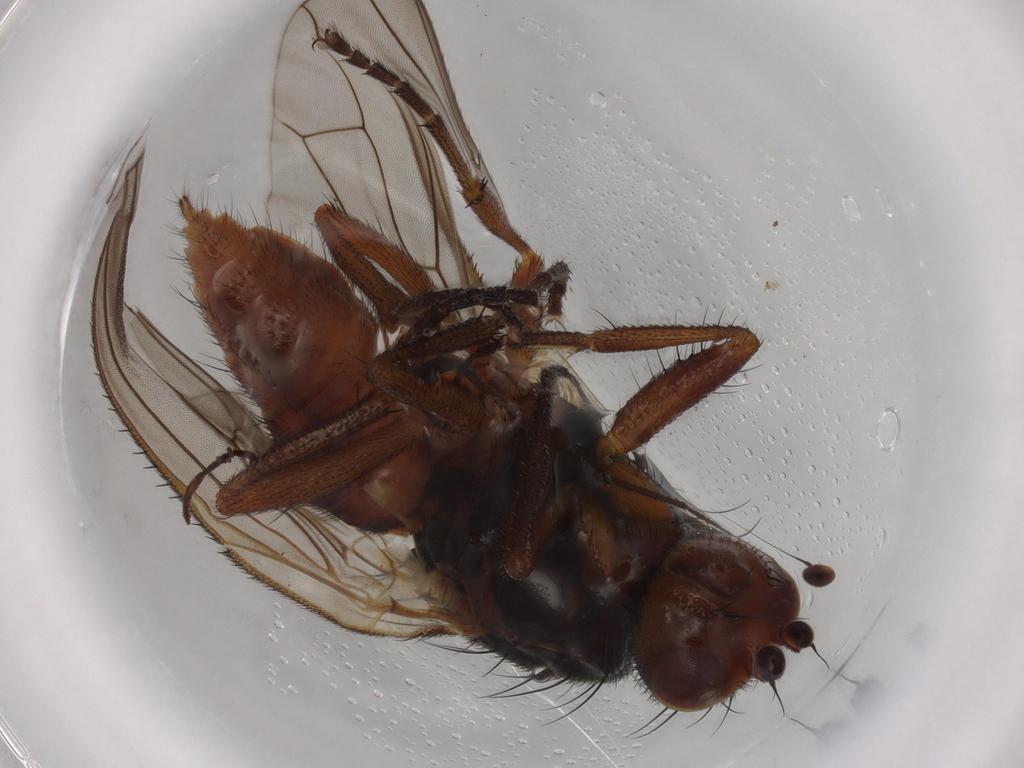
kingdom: Animalia
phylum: Arthropoda
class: Insecta
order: Diptera
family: Heleomyzidae
